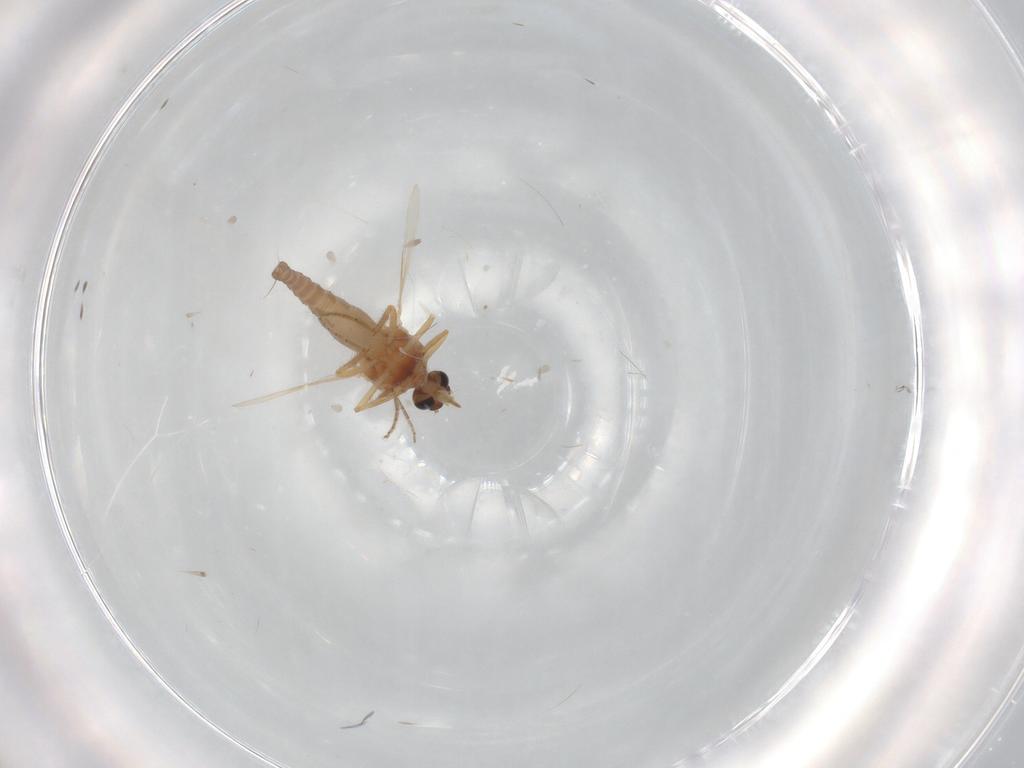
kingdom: Animalia
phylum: Arthropoda
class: Insecta
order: Diptera
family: Ceratopogonidae
